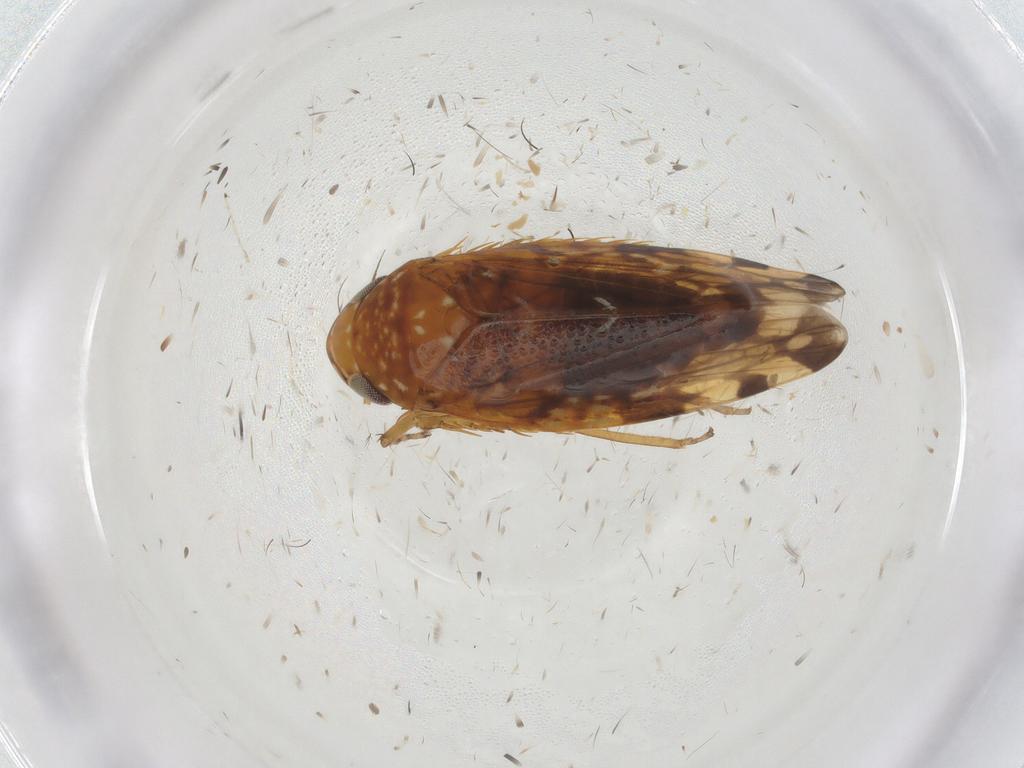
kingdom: Animalia
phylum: Arthropoda
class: Insecta
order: Hemiptera
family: Cicadellidae
